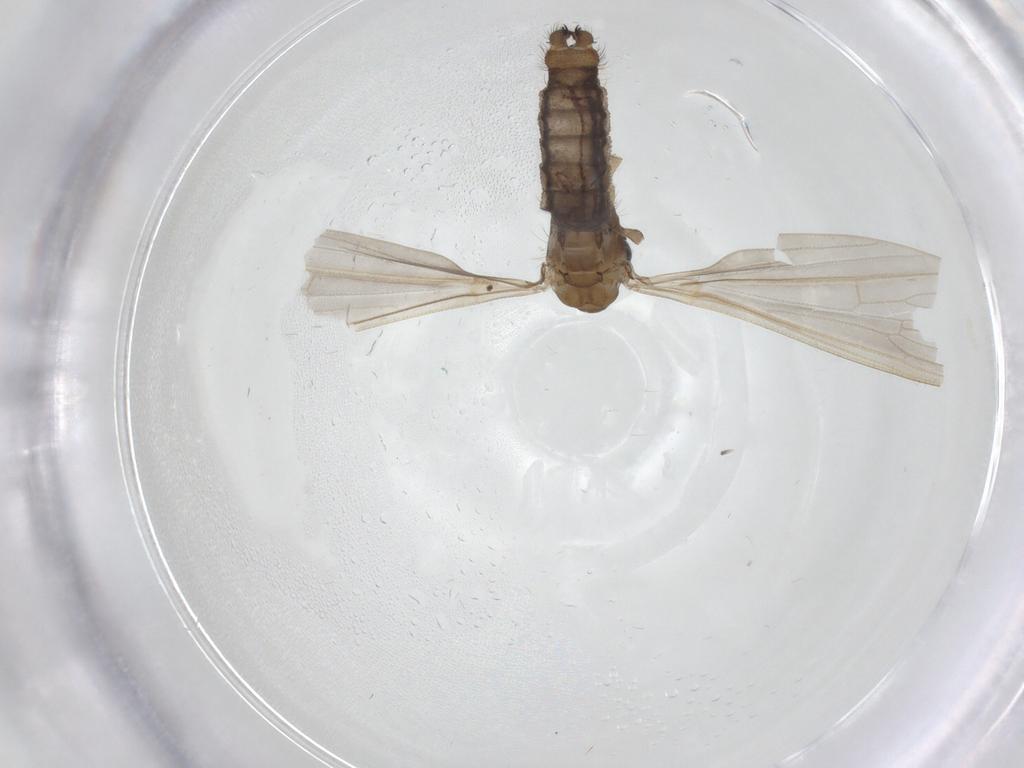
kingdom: Animalia
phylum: Arthropoda
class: Insecta
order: Diptera
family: Limoniidae
